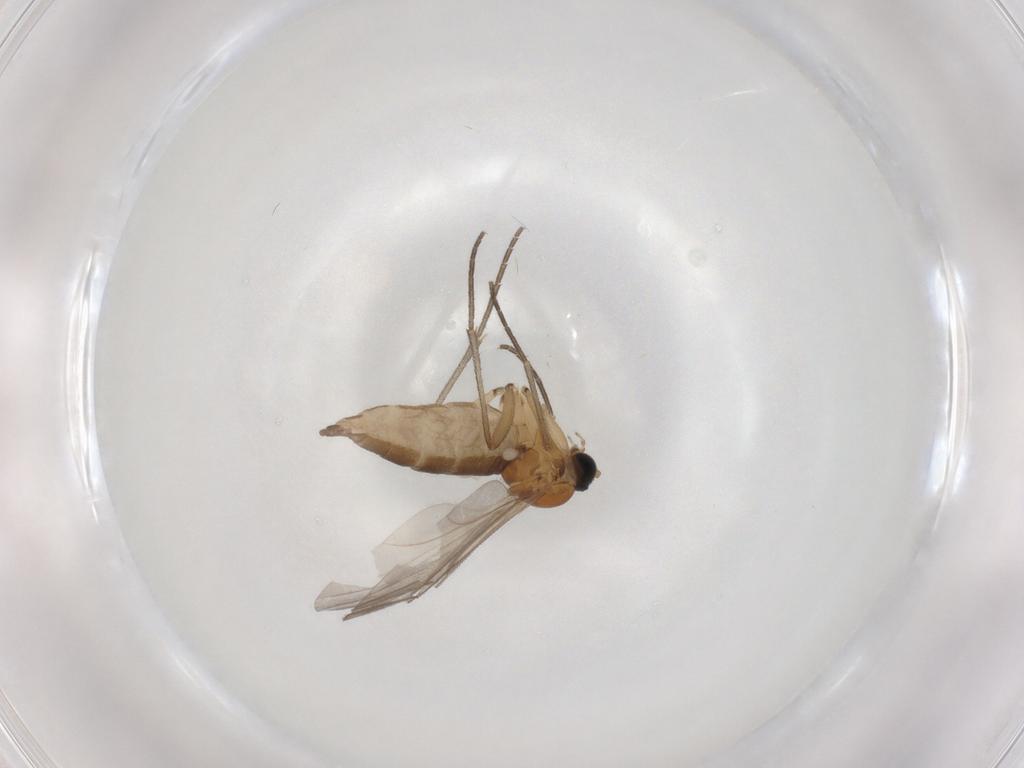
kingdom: Animalia
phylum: Arthropoda
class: Insecta
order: Diptera
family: Sciaridae
